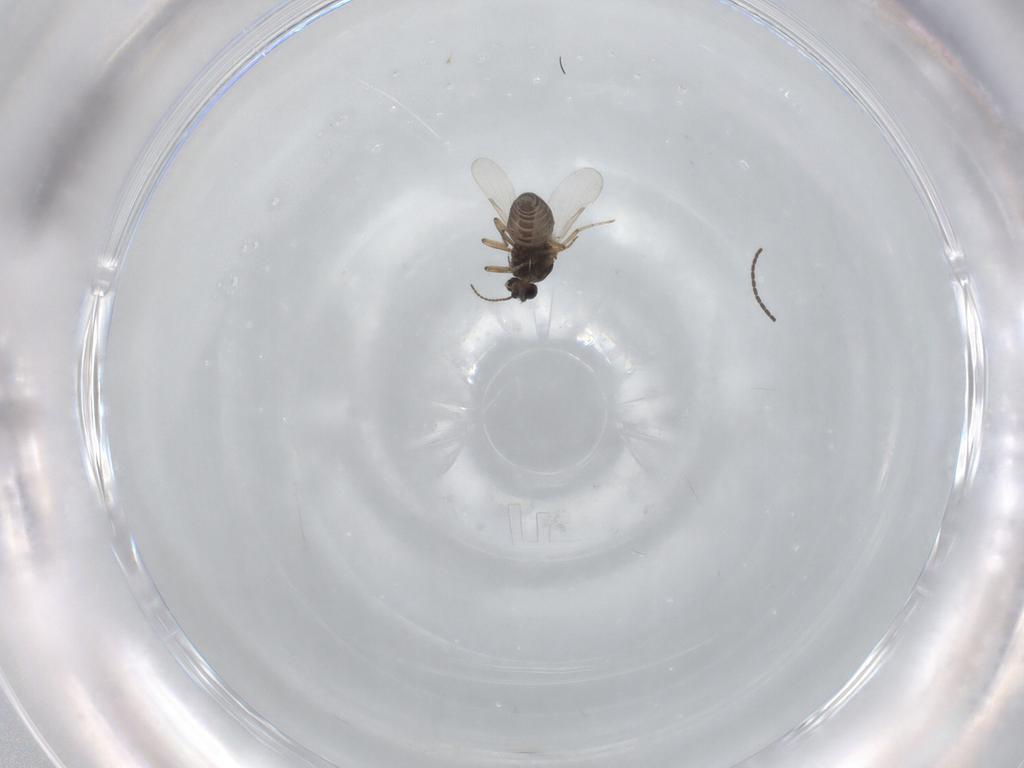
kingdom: Animalia
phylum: Arthropoda
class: Insecta
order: Diptera
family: Ceratopogonidae
